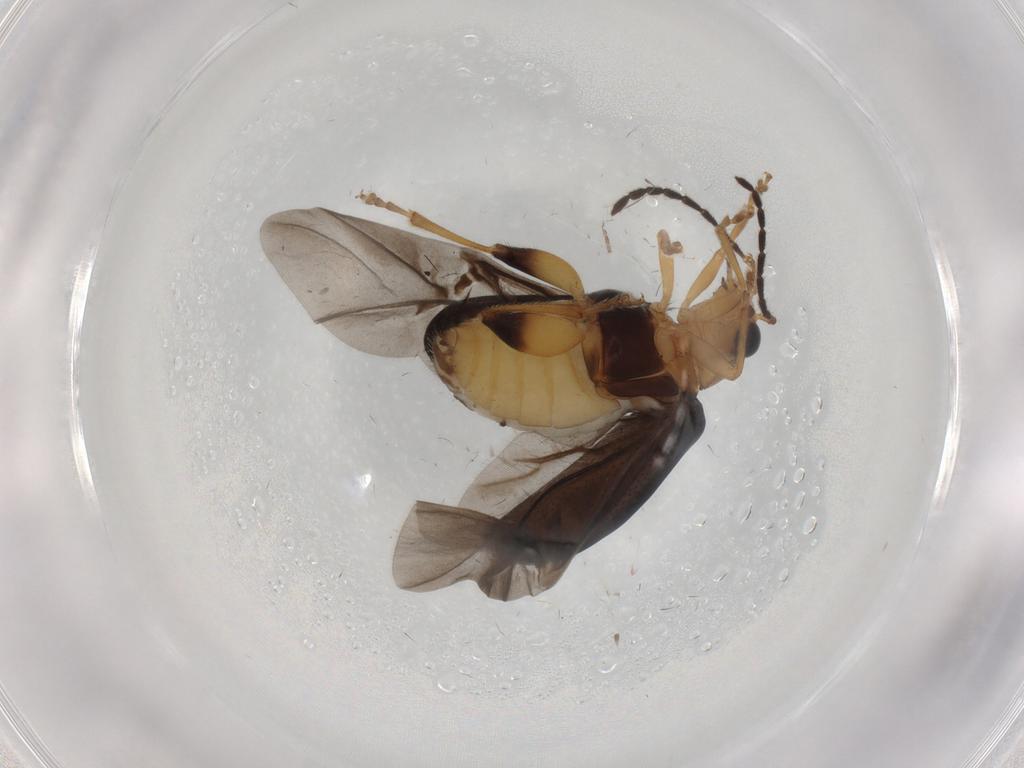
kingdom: Animalia
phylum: Arthropoda
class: Insecta
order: Coleoptera
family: Chrysomelidae
